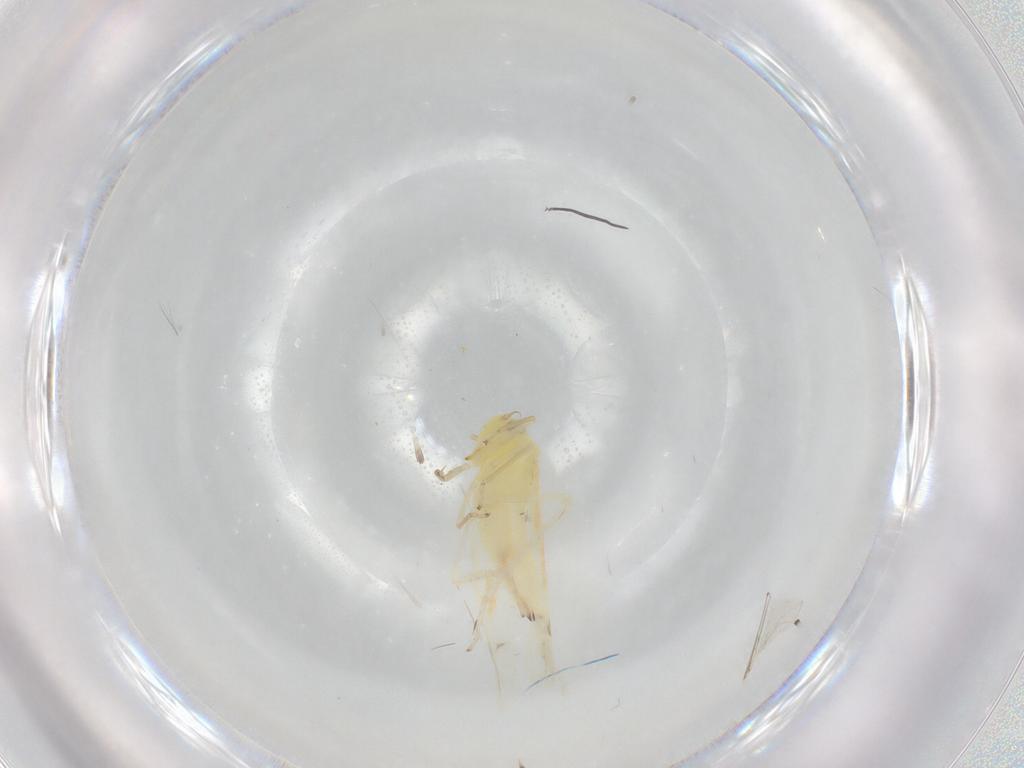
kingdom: Animalia
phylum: Arthropoda
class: Insecta
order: Hemiptera
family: Cicadellidae
